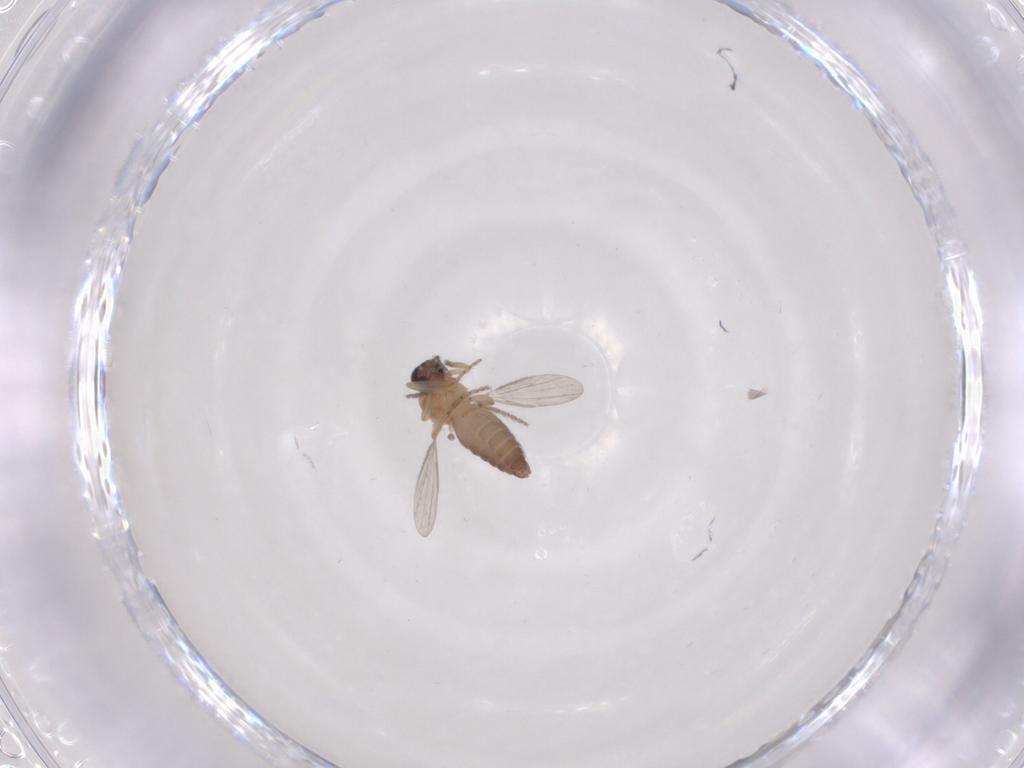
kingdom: Animalia
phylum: Arthropoda
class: Insecta
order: Diptera
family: Ceratopogonidae
